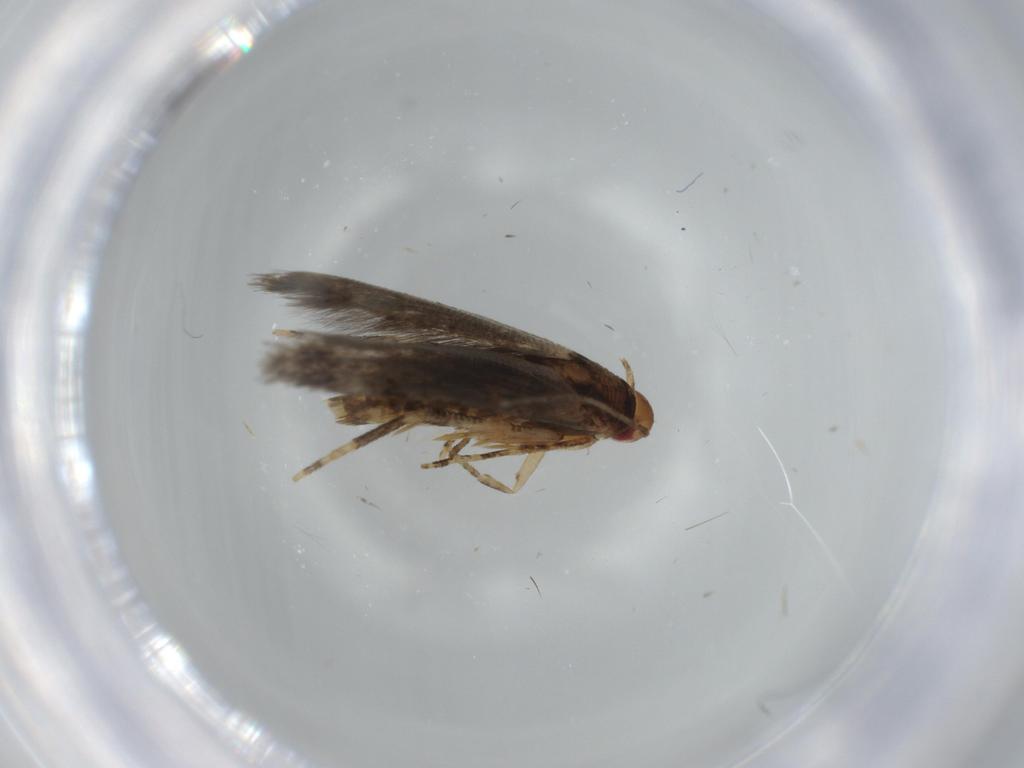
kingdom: Animalia
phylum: Arthropoda
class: Insecta
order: Lepidoptera
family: Momphidae
